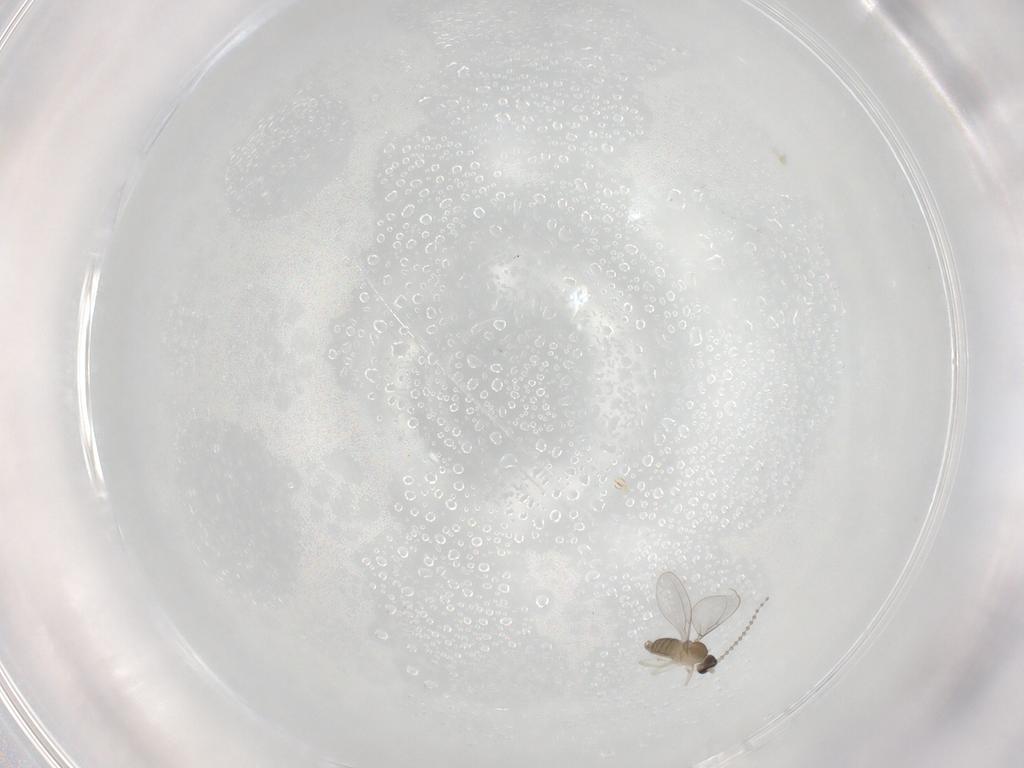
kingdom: Animalia
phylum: Arthropoda
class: Insecta
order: Diptera
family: Cecidomyiidae
